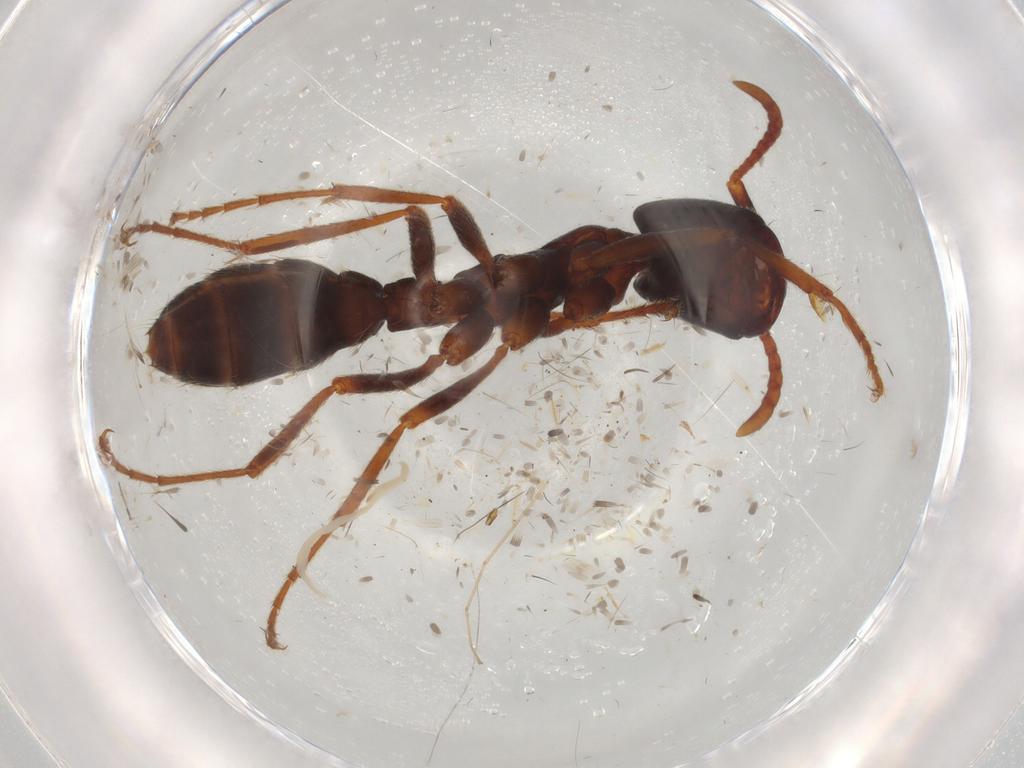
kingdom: Animalia
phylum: Arthropoda
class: Insecta
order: Hymenoptera
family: Formicidae
